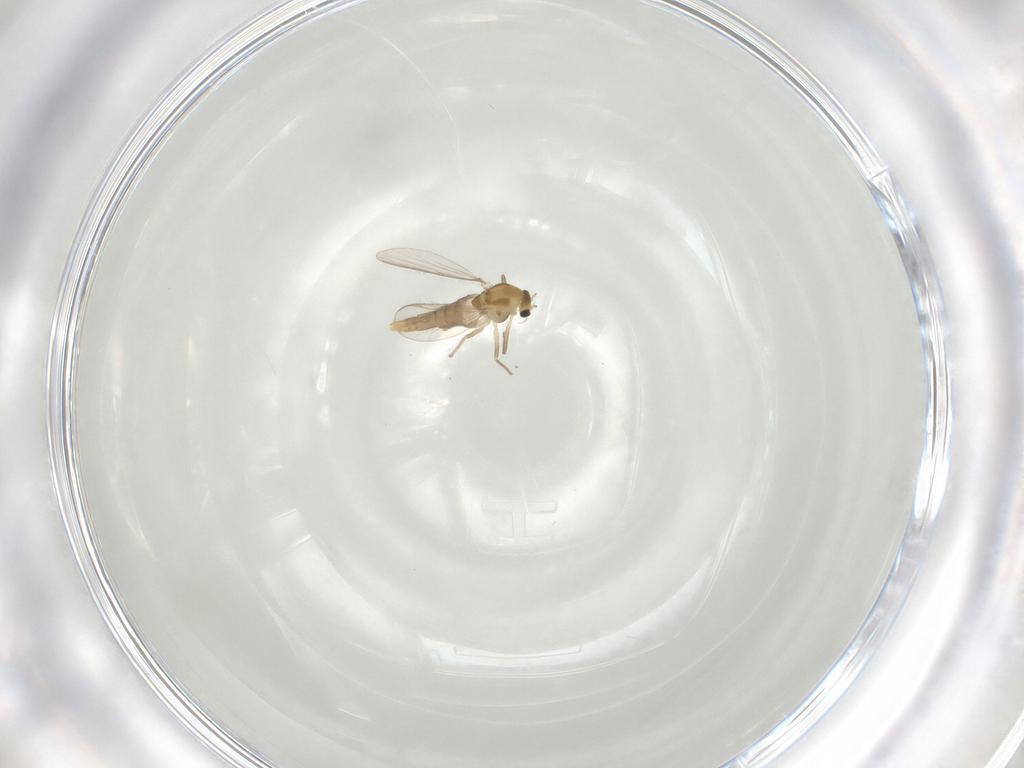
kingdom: Animalia
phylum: Arthropoda
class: Insecta
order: Diptera
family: Chironomidae
